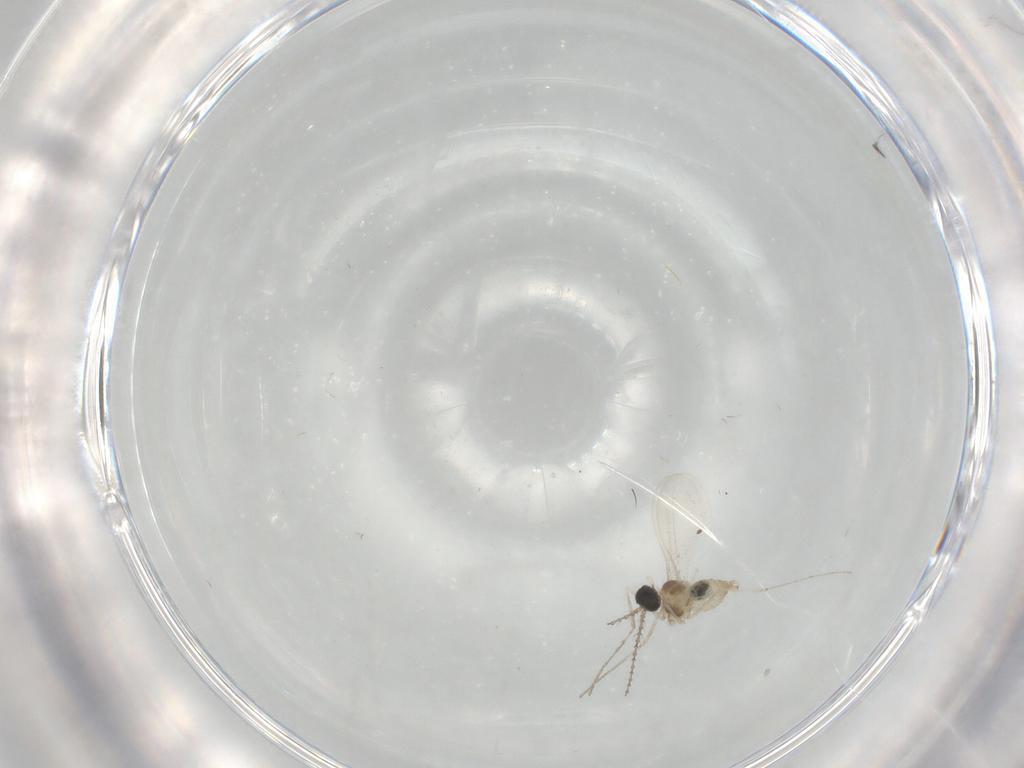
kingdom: Animalia
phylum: Arthropoda
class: Insecta
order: Diptera
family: Cecidomyiidae
